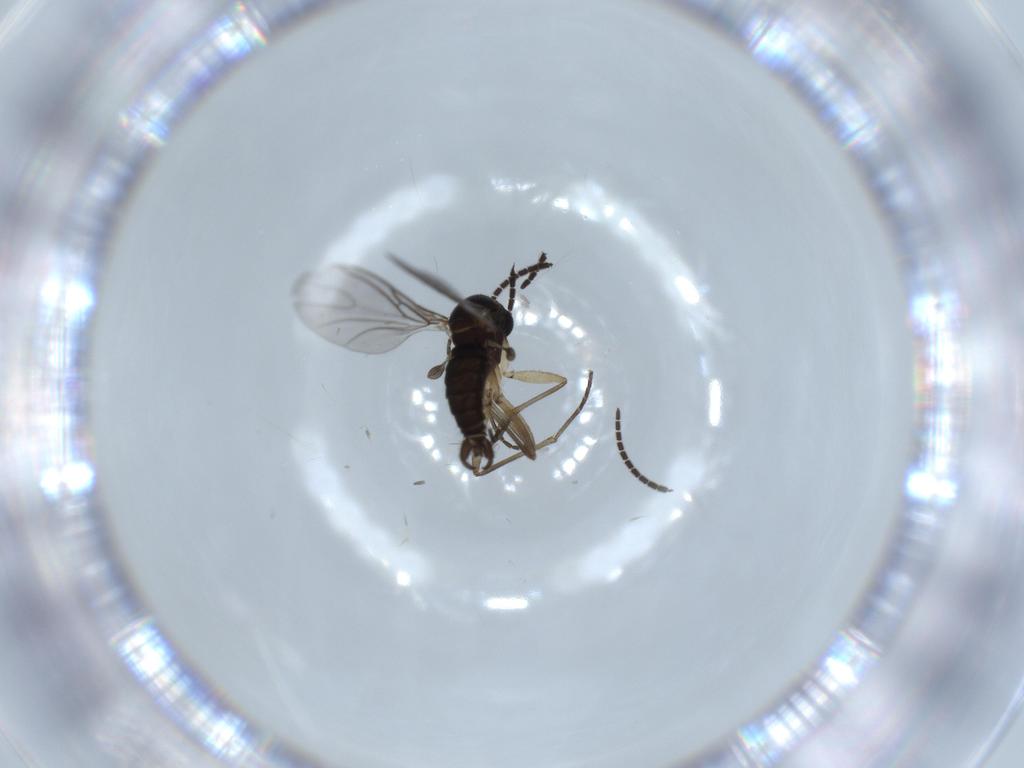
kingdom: Animalia
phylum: Arthropoda
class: Insecta
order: Diptera
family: Sciaridae
